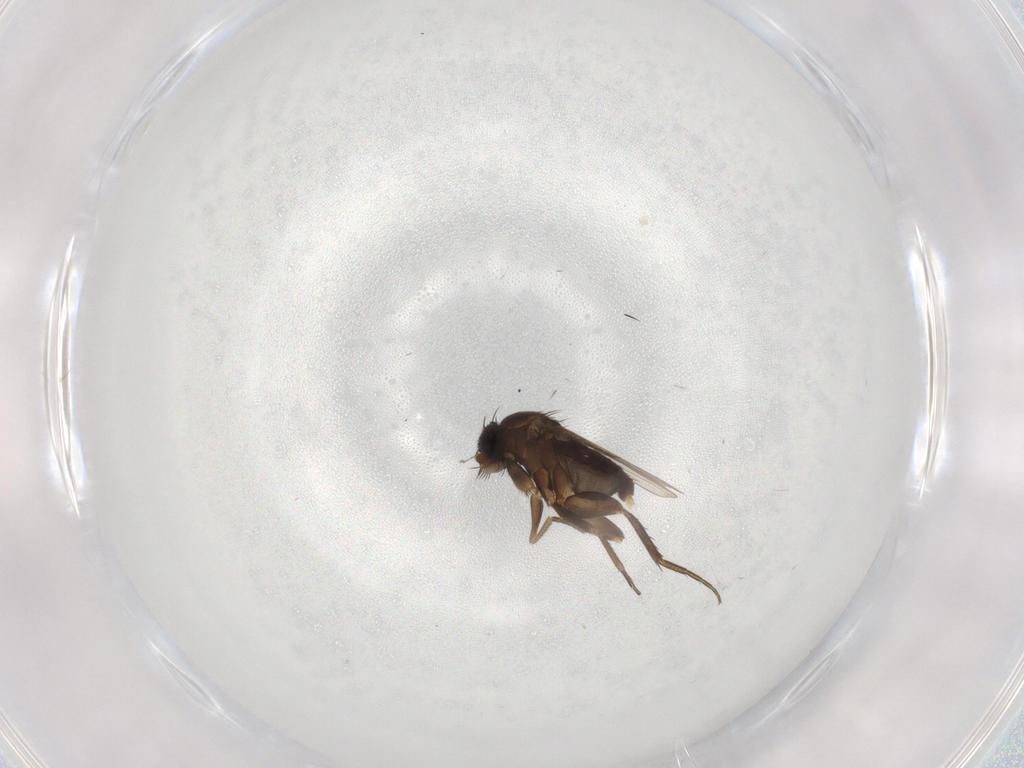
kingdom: Animalia
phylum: Arthropoda
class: Insecta
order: Diptera
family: Phoridae
